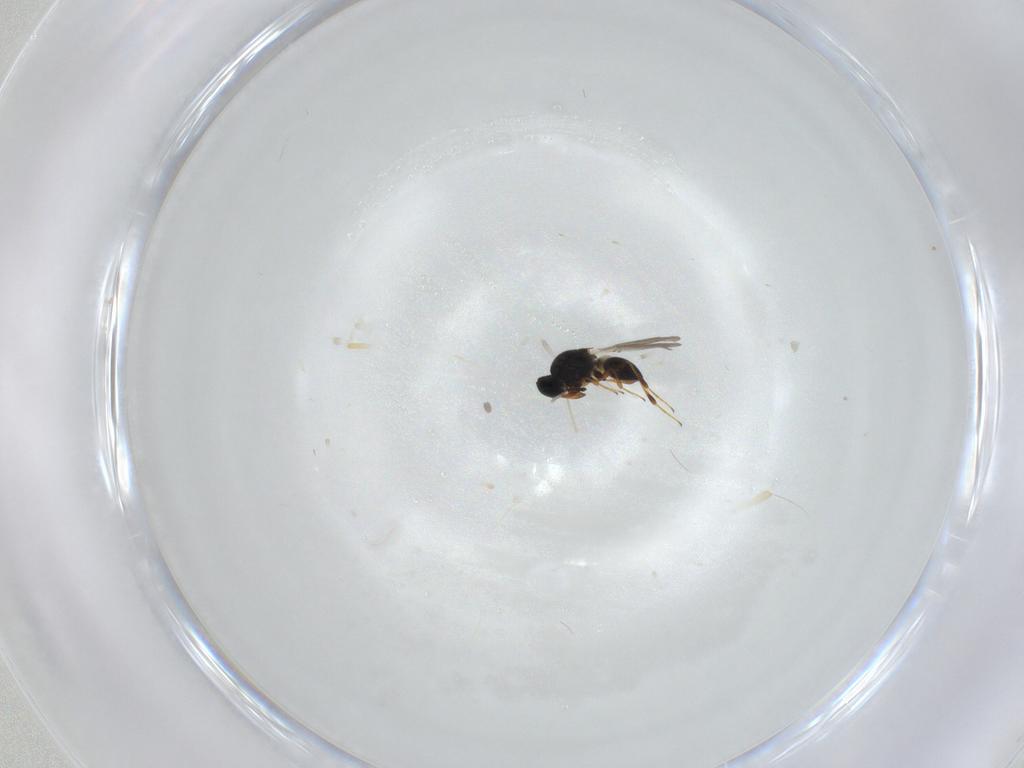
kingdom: Animalia
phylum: Arthropoda
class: Insecta
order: Hymenoptera
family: Platygastridae
